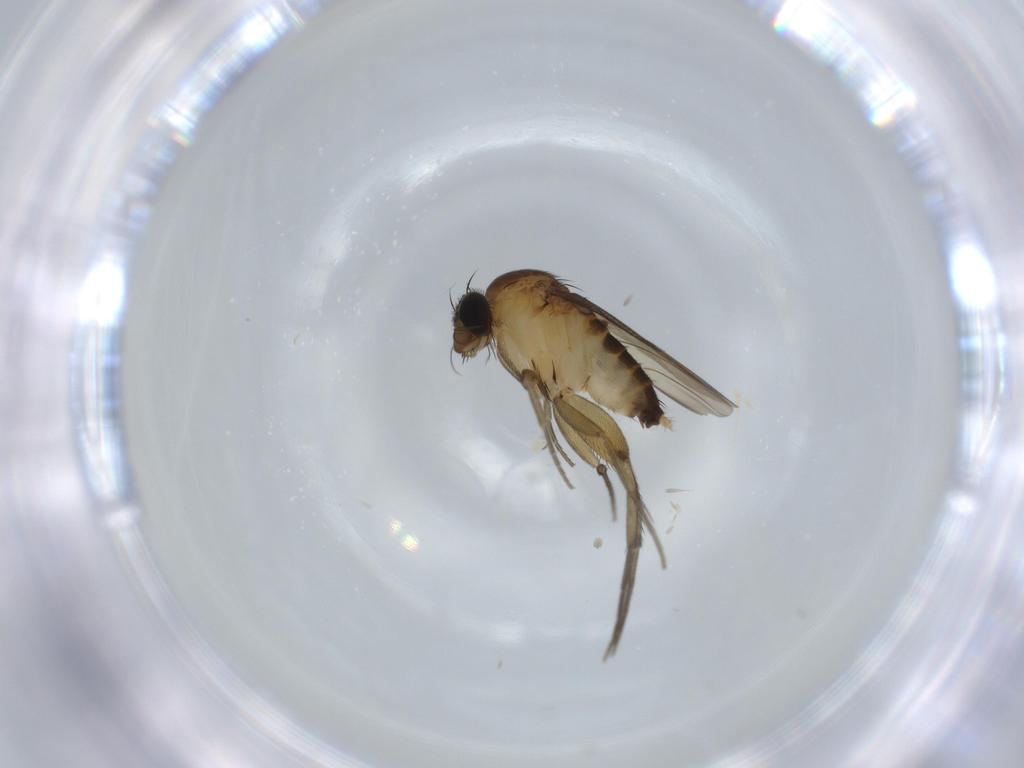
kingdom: Animalia
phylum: Arthropoda
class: Insecta
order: Diptera
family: Phoridae
